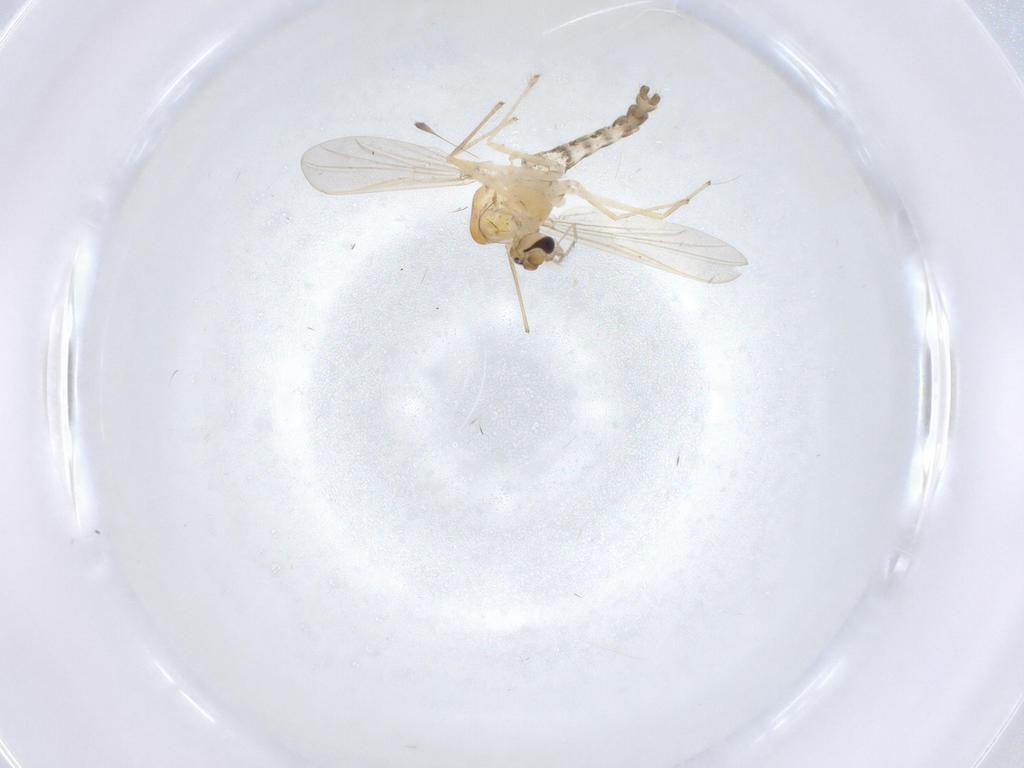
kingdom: Animalia
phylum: Arthropoda
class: Insecta
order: Diptera
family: Chironomidae
